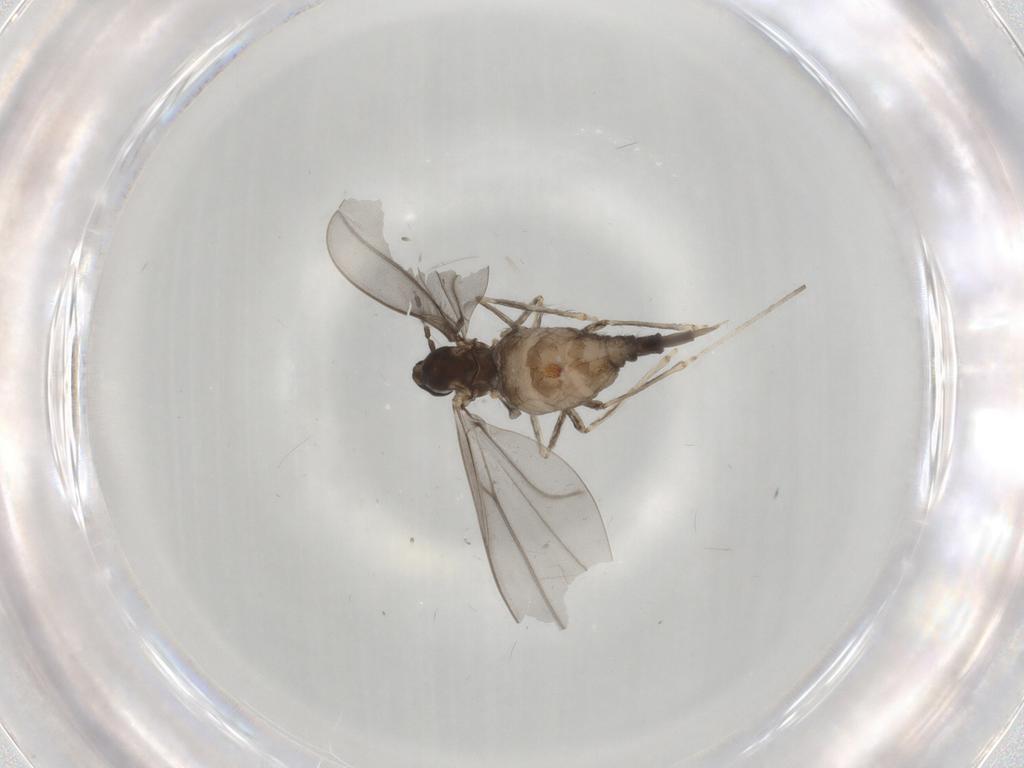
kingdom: Animalia
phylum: Arthropoda
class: Insecta
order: Diptera
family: Cecidomyiidae
